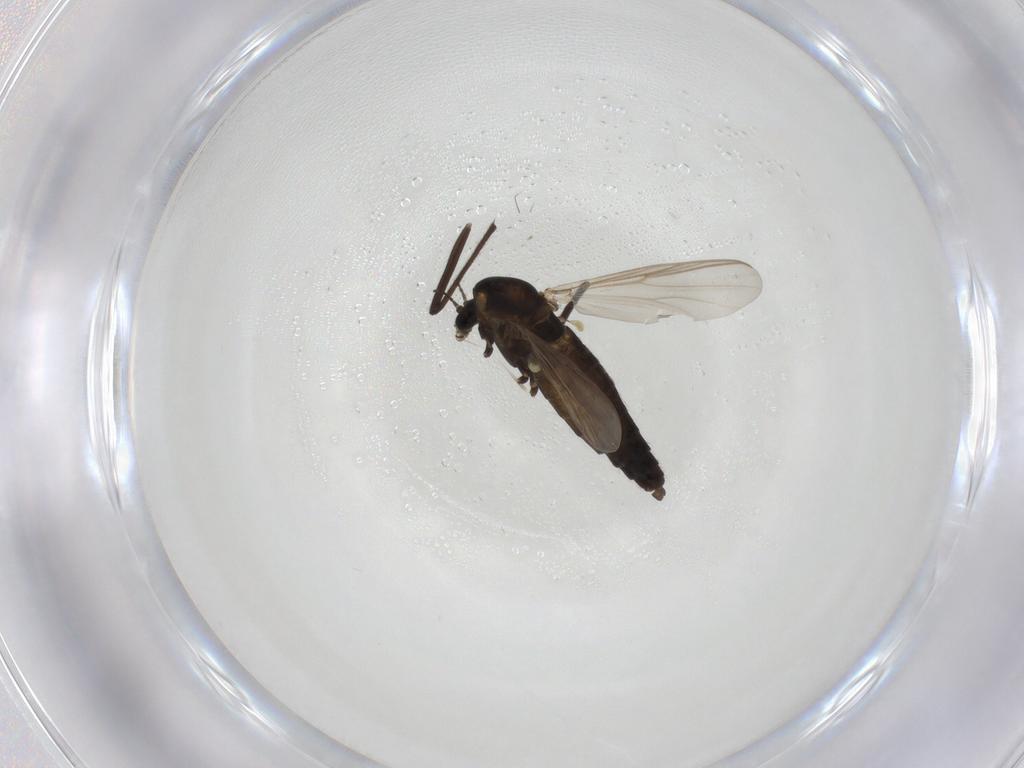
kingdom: Animalia
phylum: Arthropoda
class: Insecta
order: Diptera
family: Chironomidae
